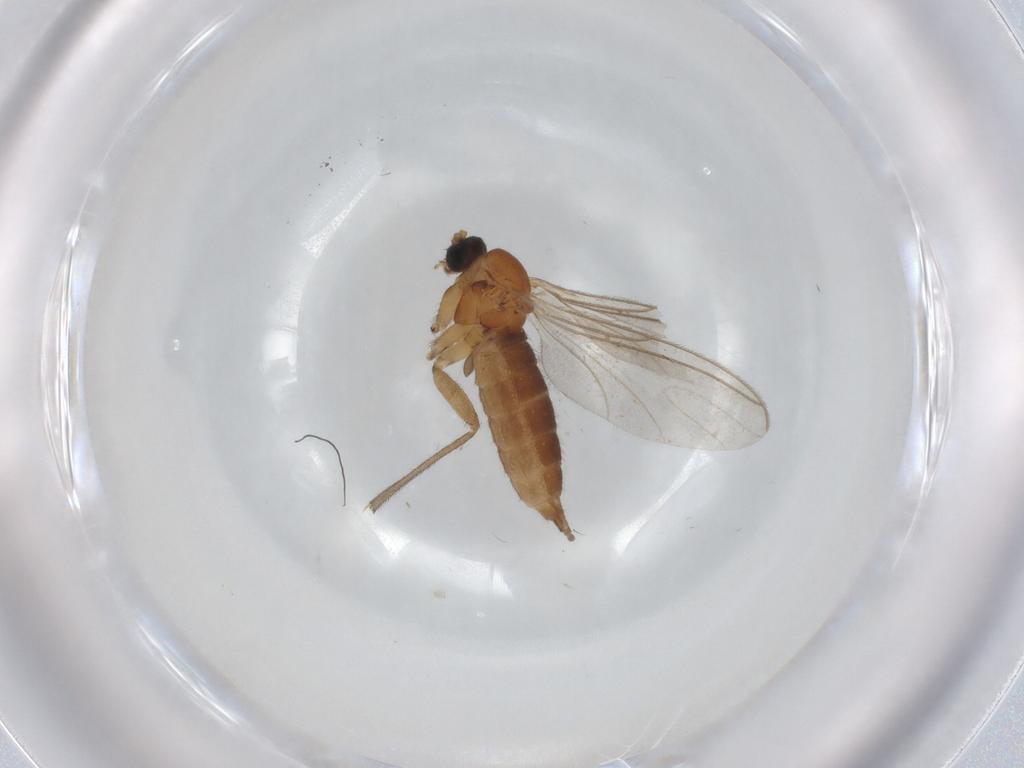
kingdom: Animalia
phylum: Arthropoda
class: Insecta
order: Diptera
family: Sciaridae
